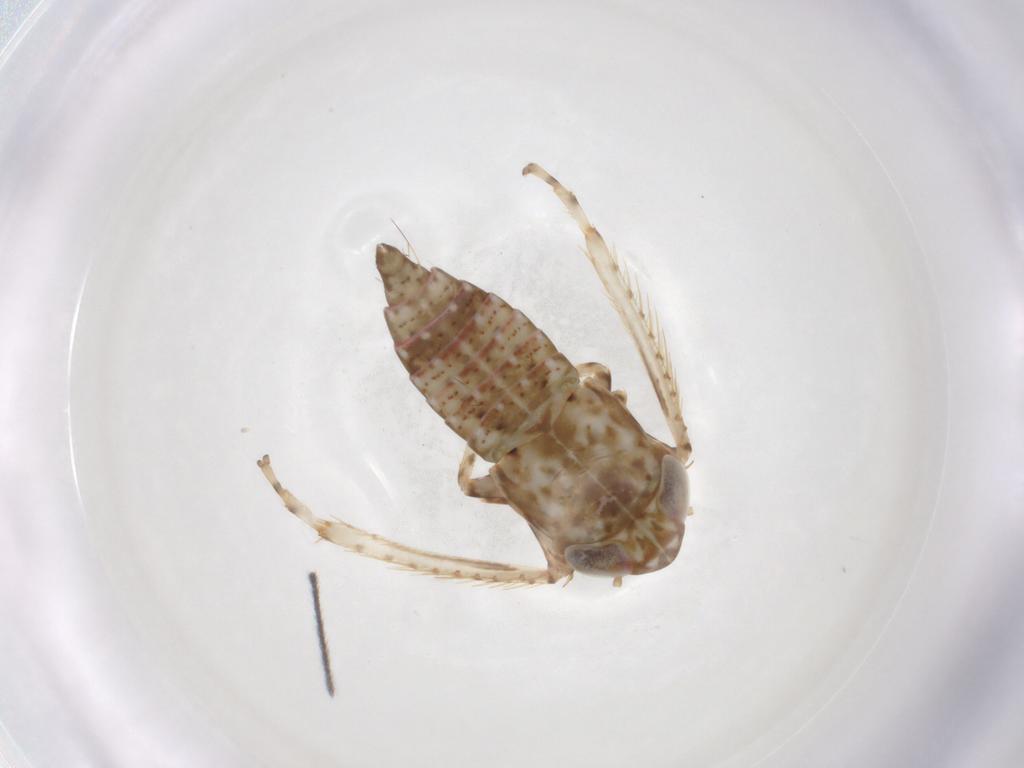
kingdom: Animalia
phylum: Arthropoda
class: Insecta
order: Hemiptera
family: Cicadellidae
